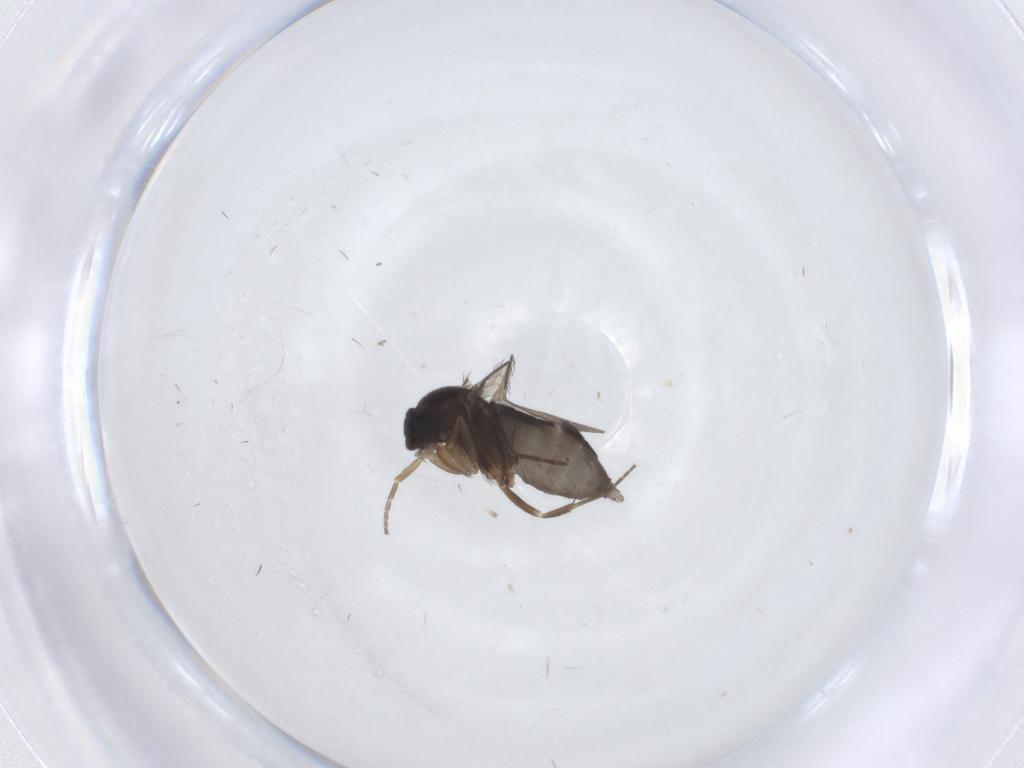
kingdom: Animalia
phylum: Arthropoda
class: Insecta
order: Diptera
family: Phoridae
